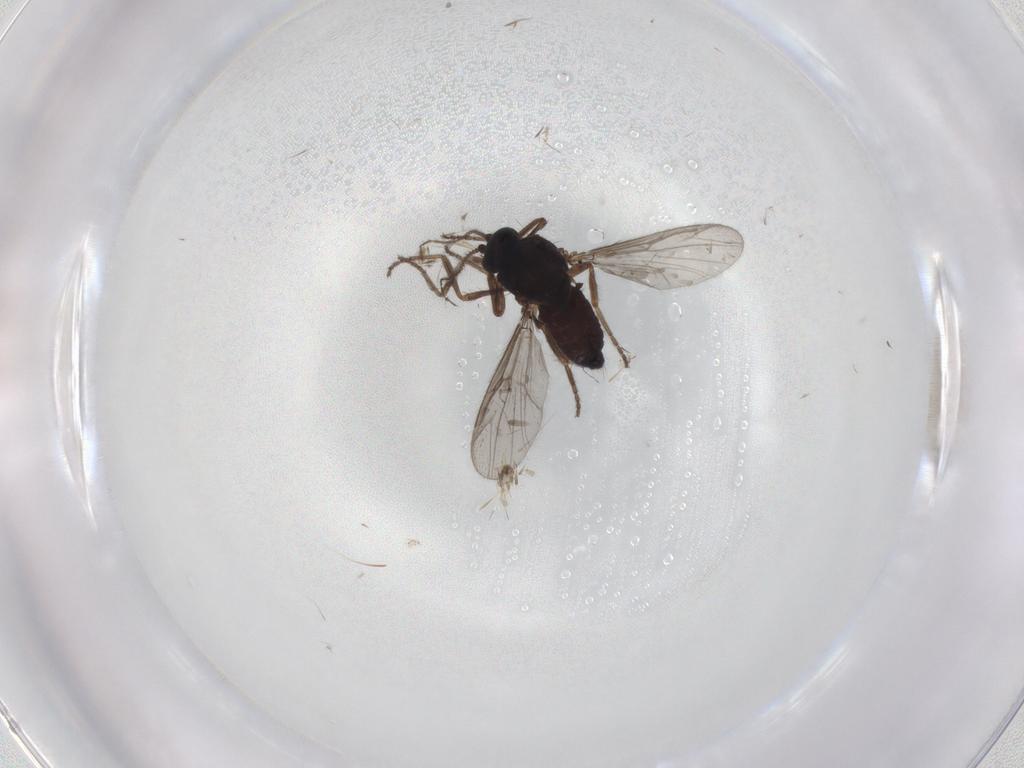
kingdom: Animalia
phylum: Arthropoda
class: Insecta
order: Diptera
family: Ceratopogonidae
